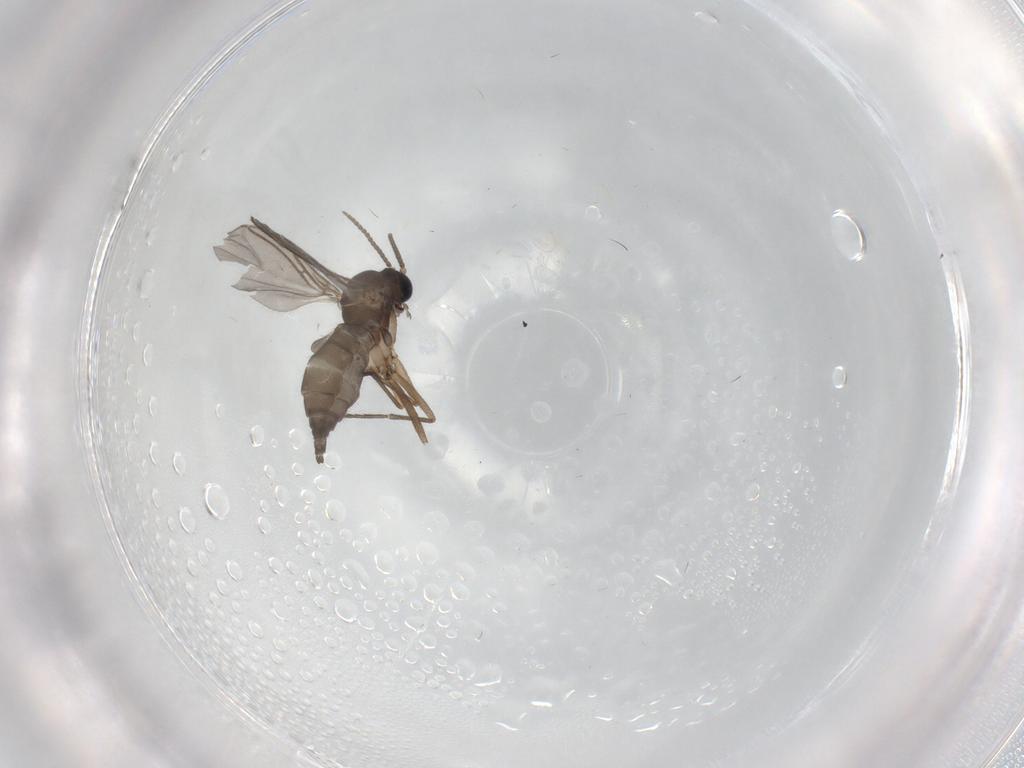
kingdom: Animalia
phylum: Arthropoda
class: Insecta
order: Diptera
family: Sciaridae
